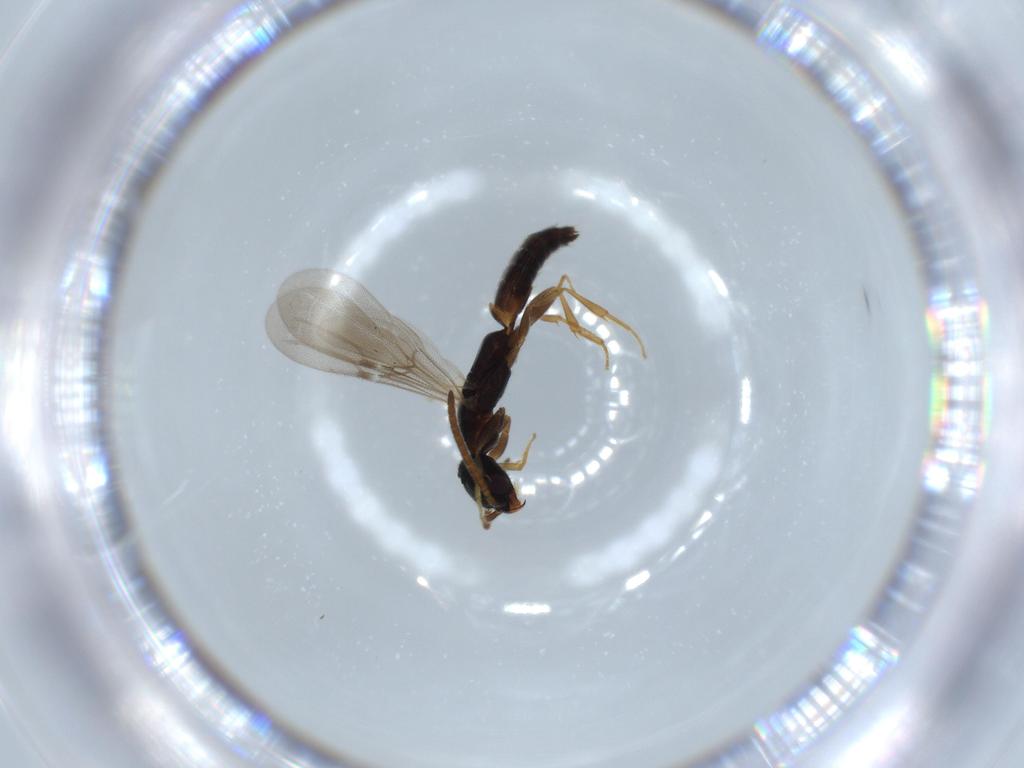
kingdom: Animalia
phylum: Arthropoda
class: Insecta
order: Hymenoptera
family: Bethylidae
